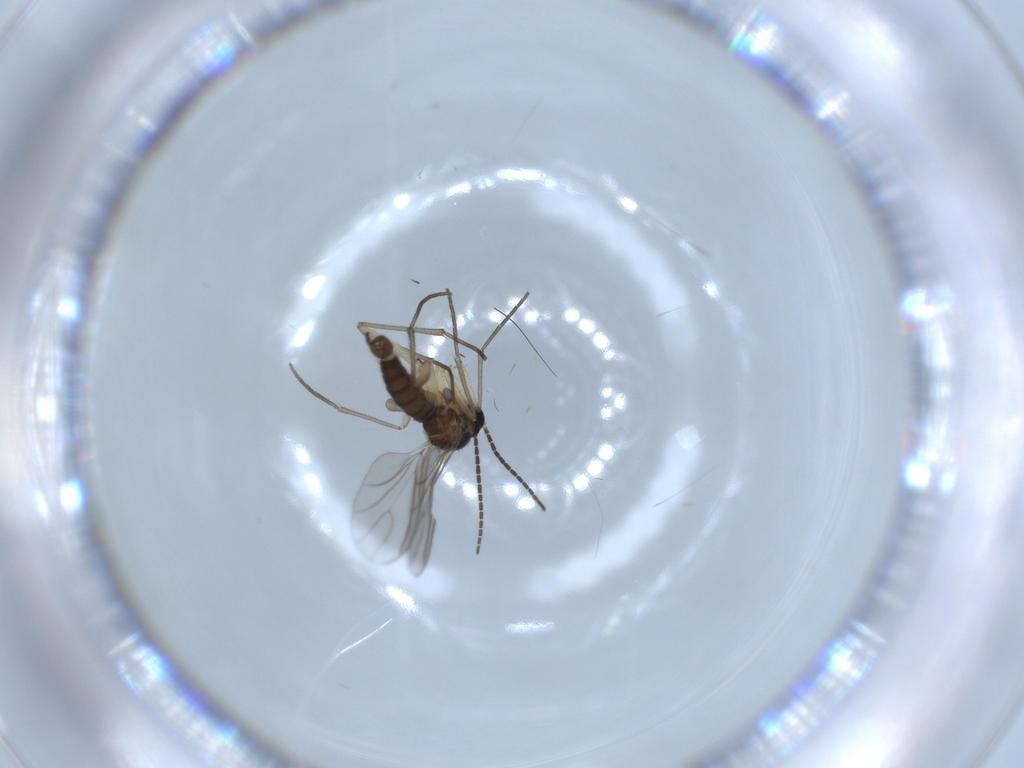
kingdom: Animalia
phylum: Arthropoda
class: Insecta
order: Diptera
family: Sciaridae
